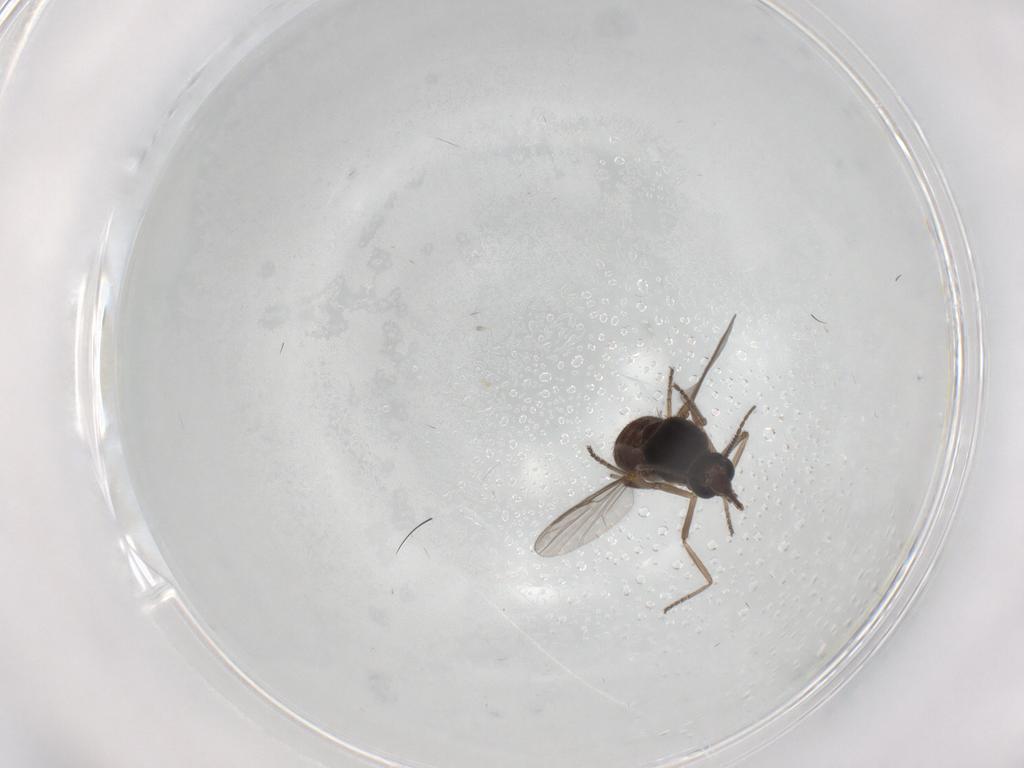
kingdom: Animalia
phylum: Arthropoda
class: Insecta
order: Diptera
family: Ceratopogonidae
